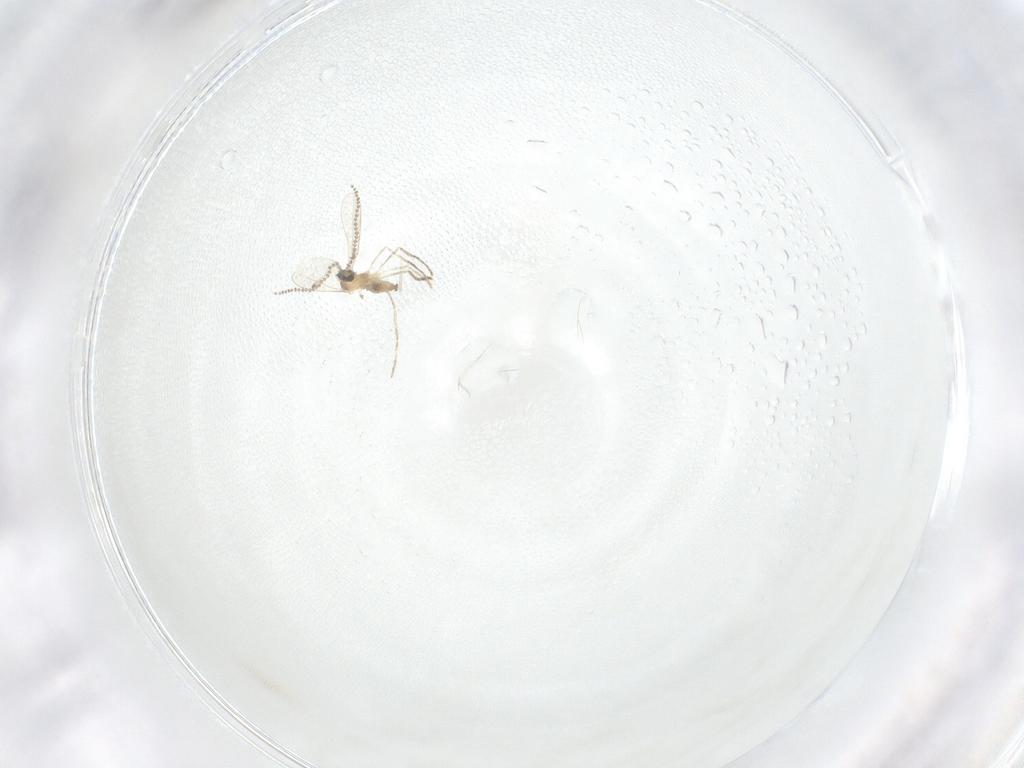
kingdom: Animalia
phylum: Arthropoda
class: Insecta
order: Diptera
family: Cecidomyiidae
